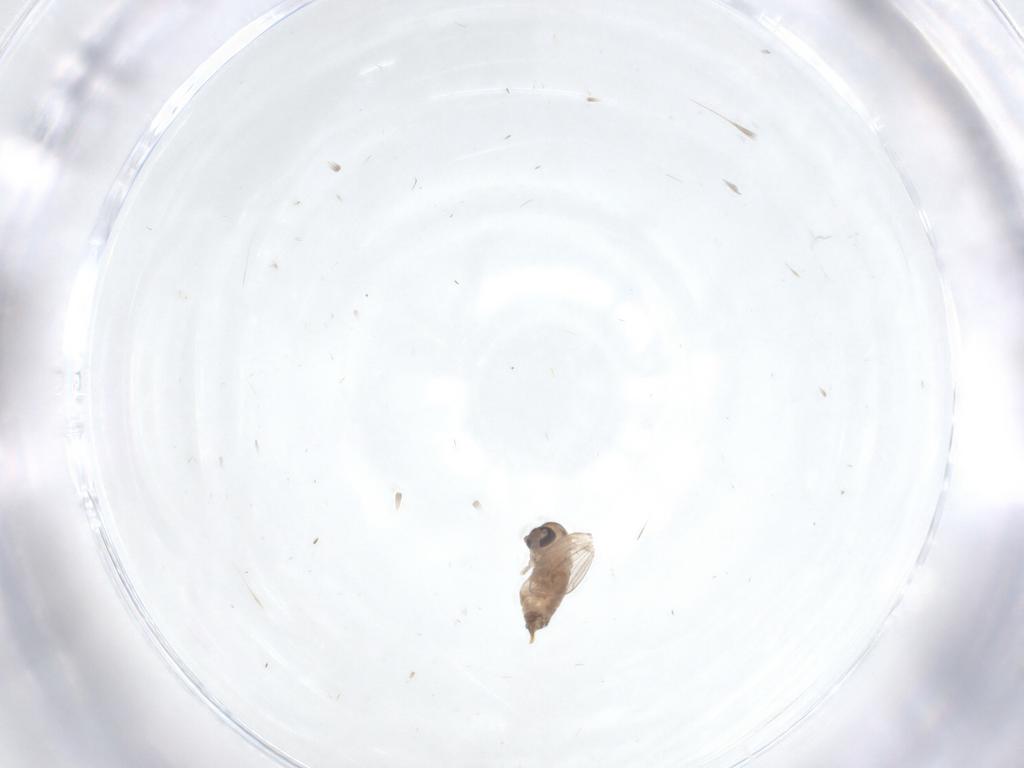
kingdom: Animalia
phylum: Arthropoda
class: Insecta
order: Diptera
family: Psychodidae
